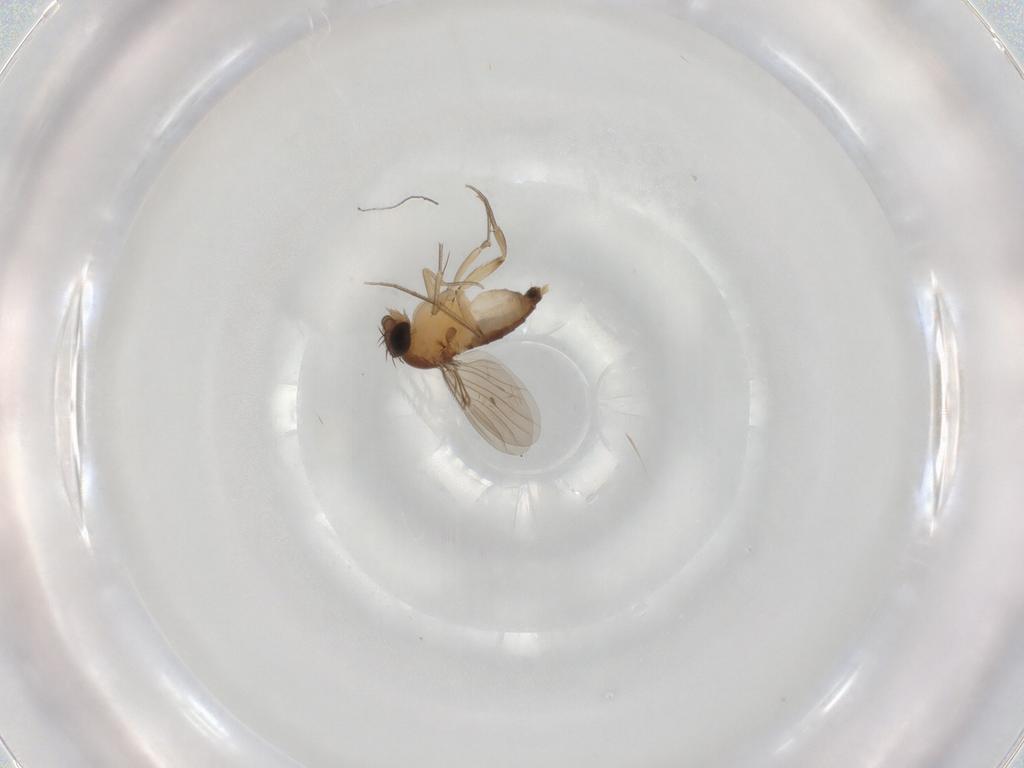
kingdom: Animalia
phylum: Arthropoda
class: Insecta
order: Diptera
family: Phoridae
